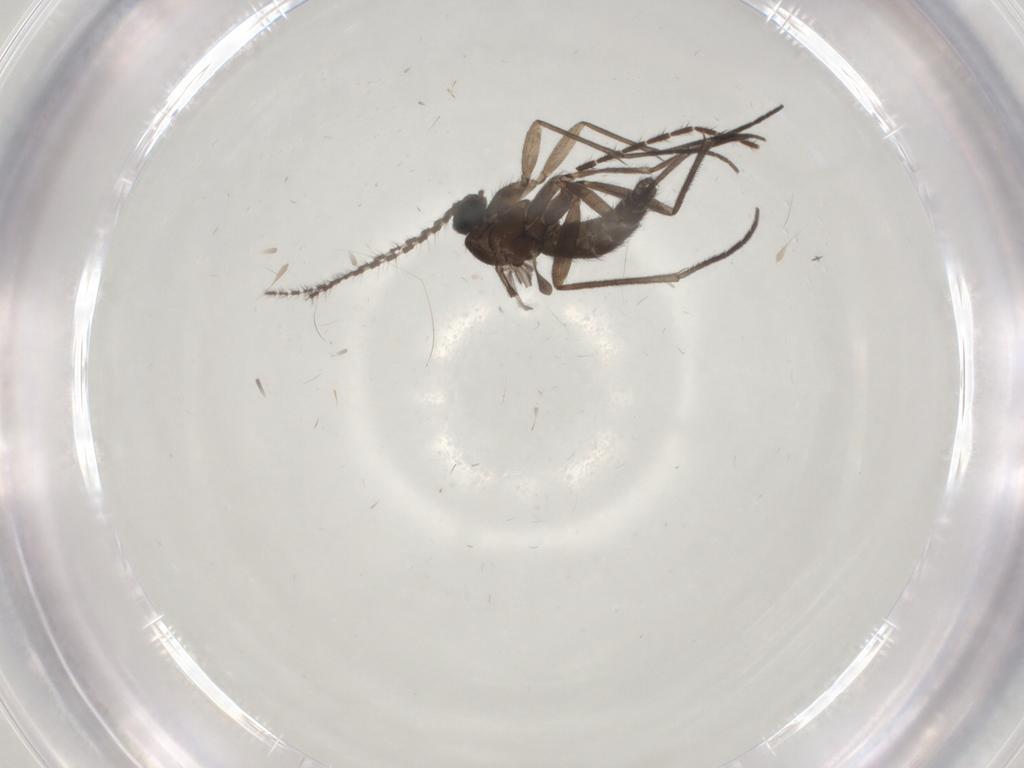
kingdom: Animalia
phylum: Arthropoda
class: Insecta
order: Diptera
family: Sciaridae
